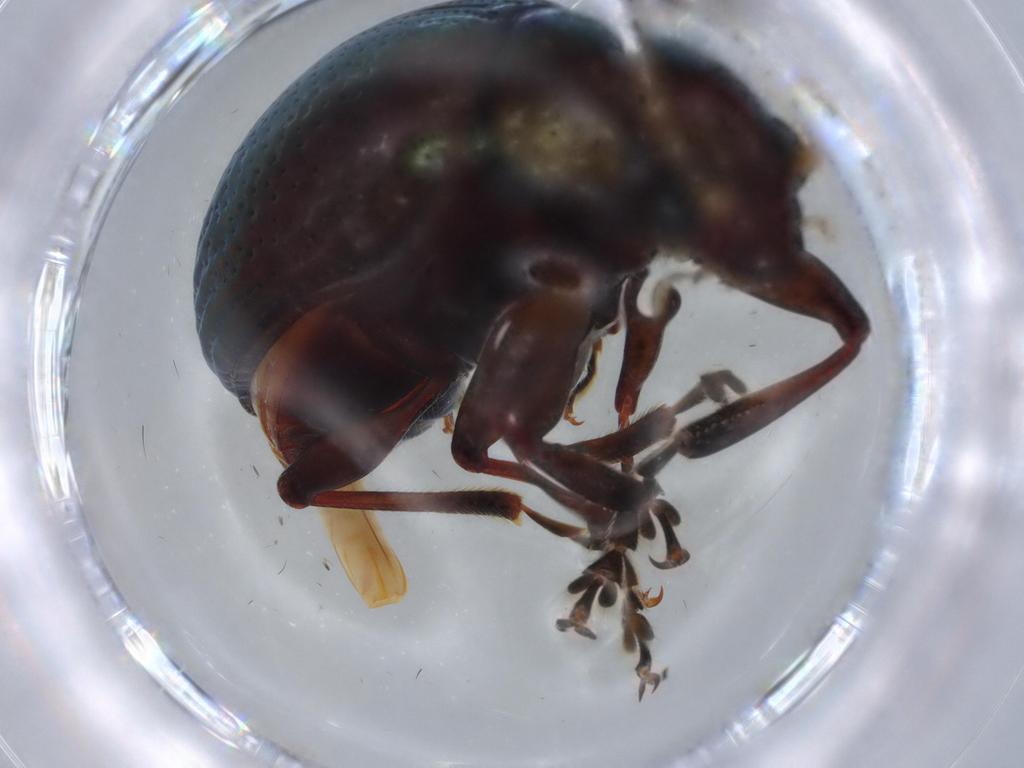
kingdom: Animalia
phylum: Arthropoda
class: Insecta
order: Coleoptera
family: Chrysomelidae
